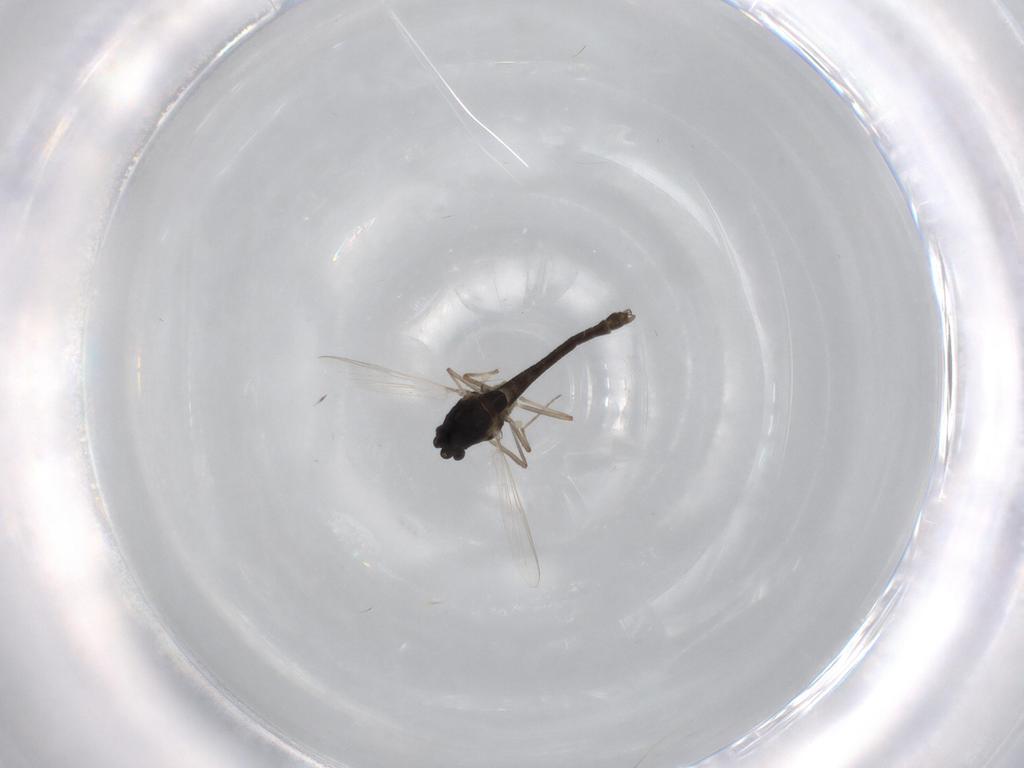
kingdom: Animalia
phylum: Arthropoda
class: Insecta
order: Diptera
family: Chironomidae
